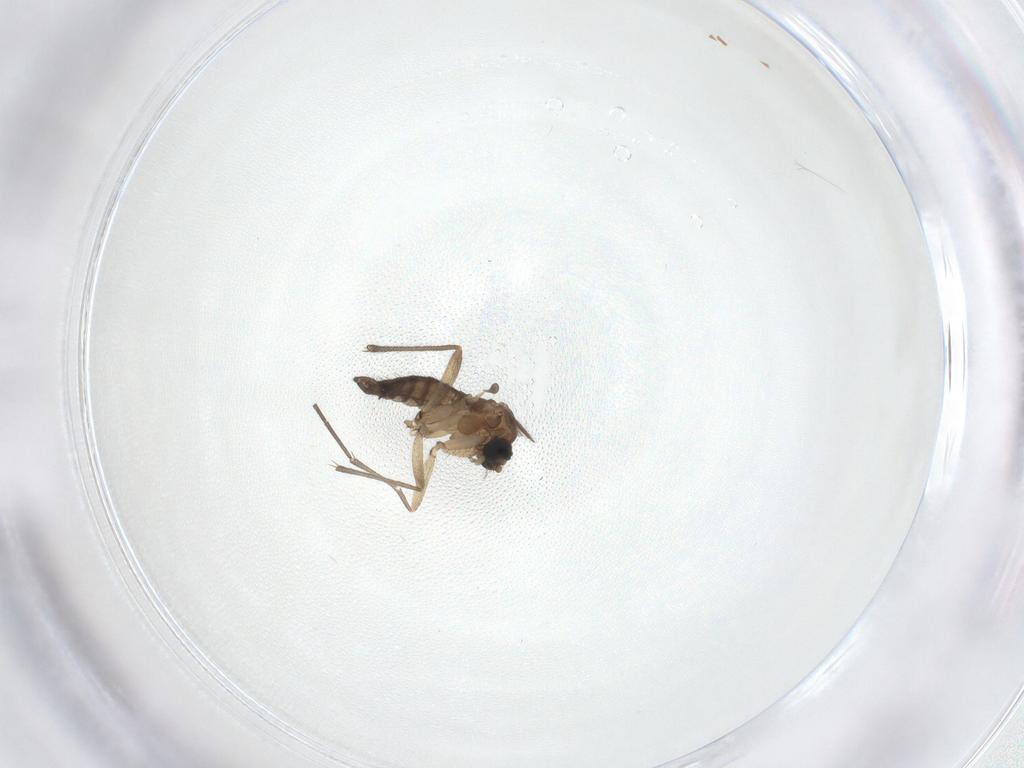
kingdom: Animalia
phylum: Arthropoda
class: Insecta
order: Diptera
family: Sciaridae
